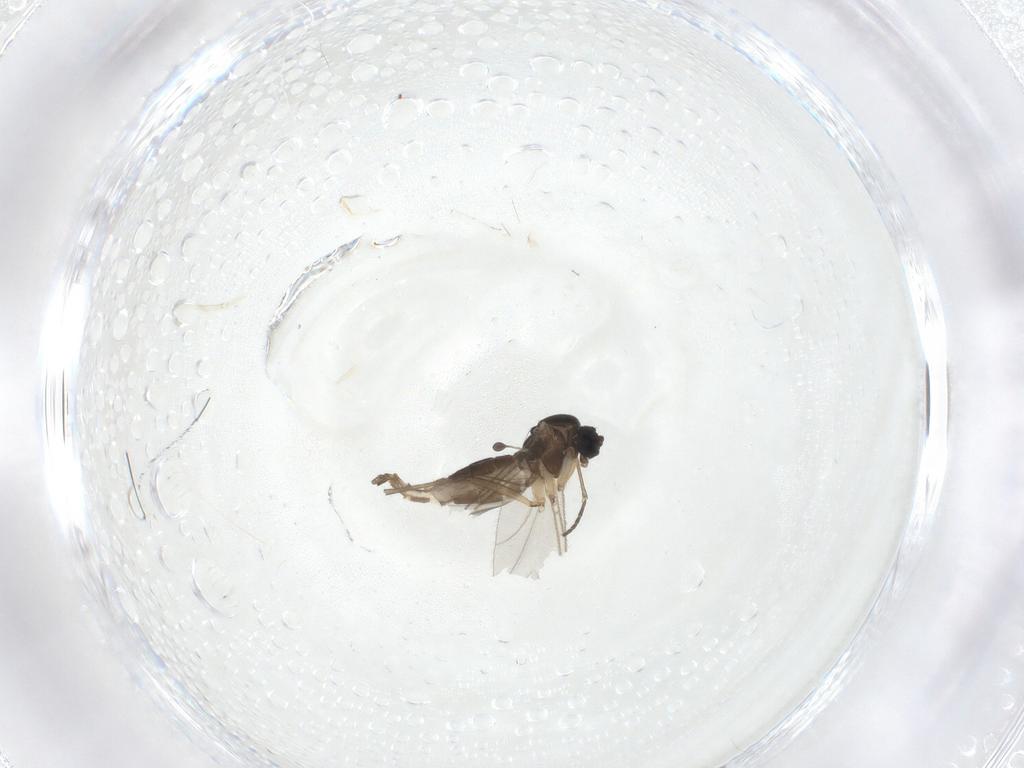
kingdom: Animalia
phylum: Arthropoda
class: Insecta
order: Diptera
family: Sciaridae
